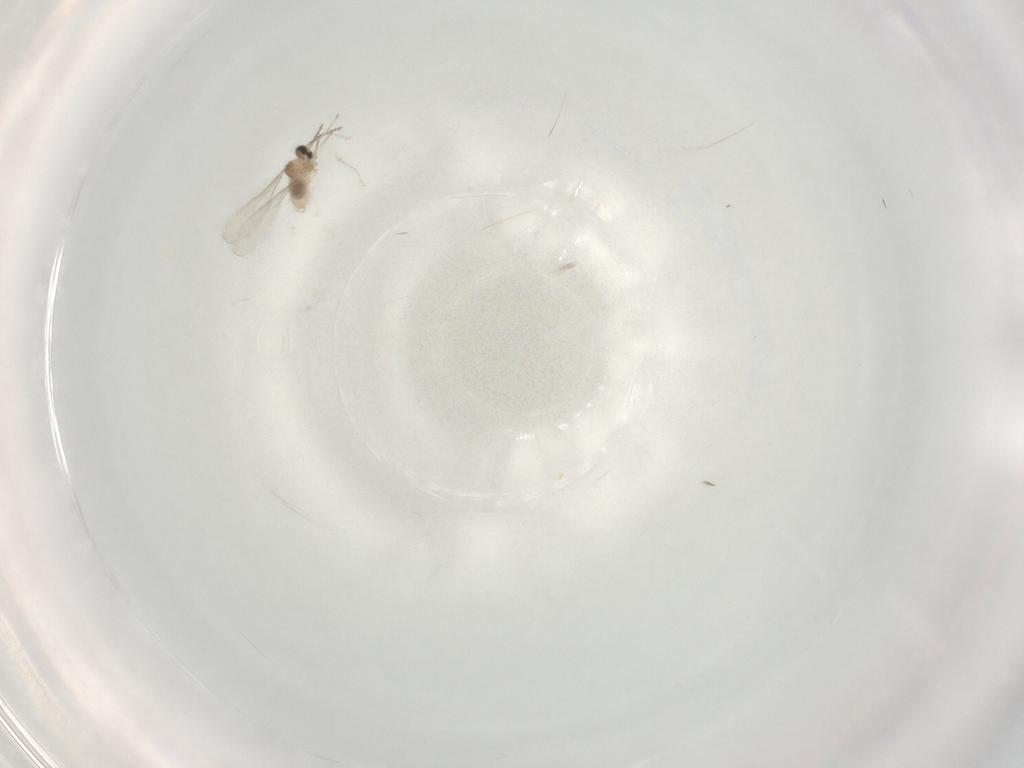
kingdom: Animalia
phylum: Arthropoda
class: Insecta
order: Diptera
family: Cecidomyiidae
